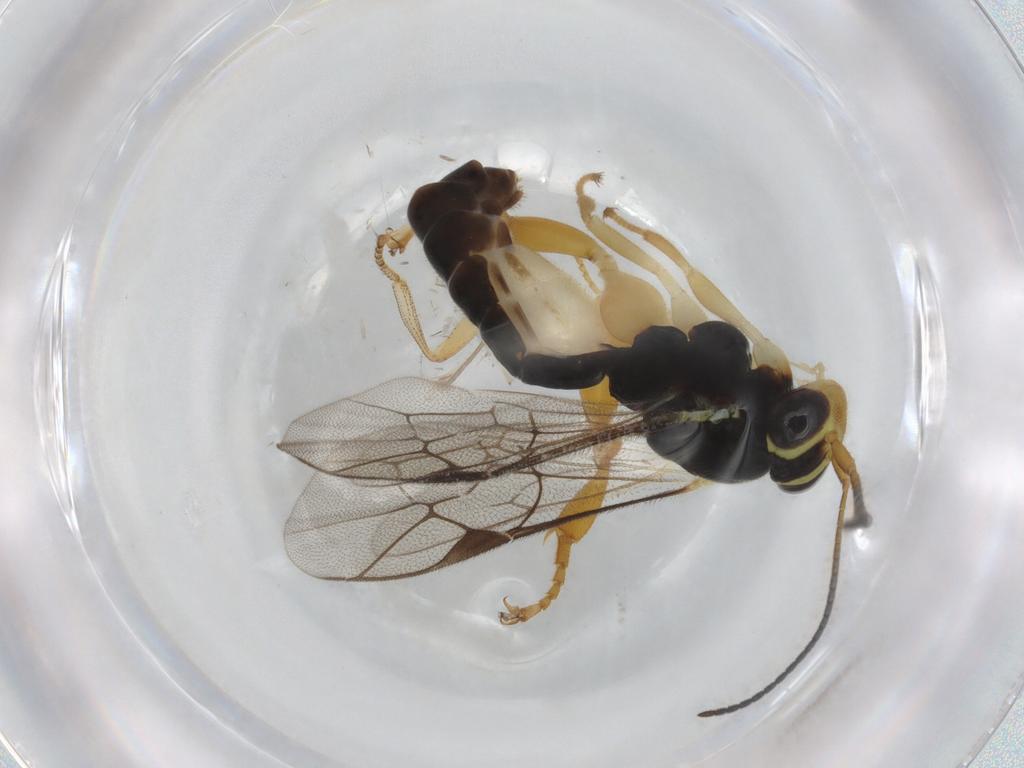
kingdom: Animalia
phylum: Arthropoda
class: Insecta
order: Hymenoptera
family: Ichneumonidae
